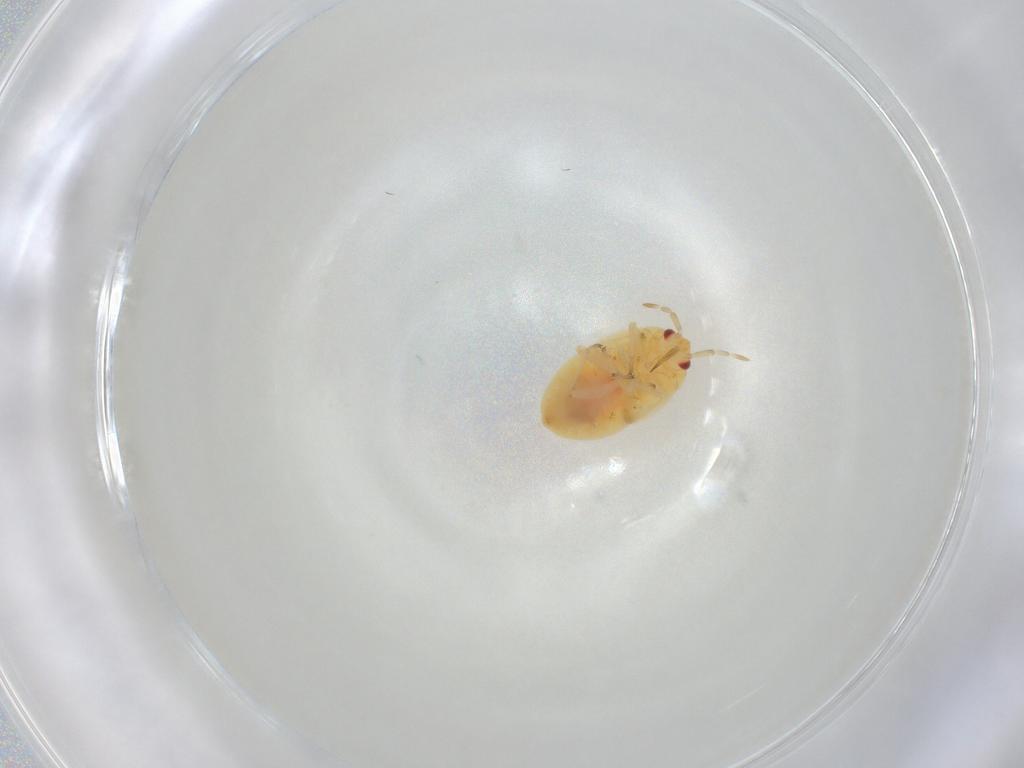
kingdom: Animalia
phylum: Arthropoda
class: Insecta
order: Hemiptera
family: Anthocoridae
